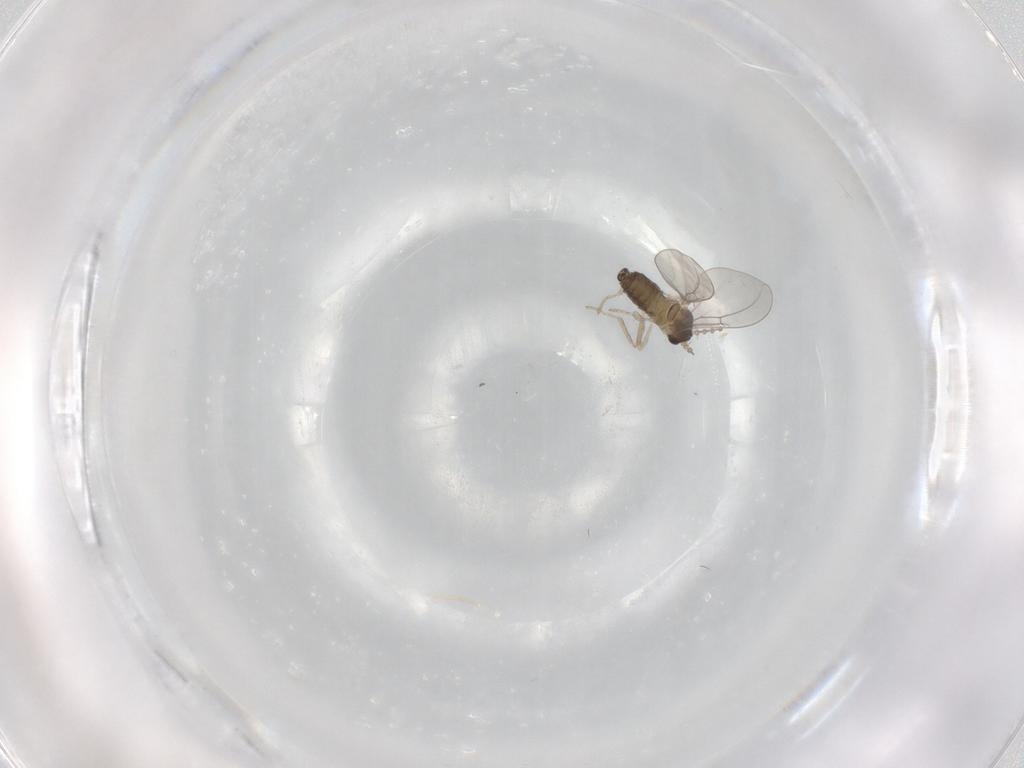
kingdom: Animalia
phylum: Arthropoda
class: Insecta
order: Diptera
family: Cecidomyiidae
